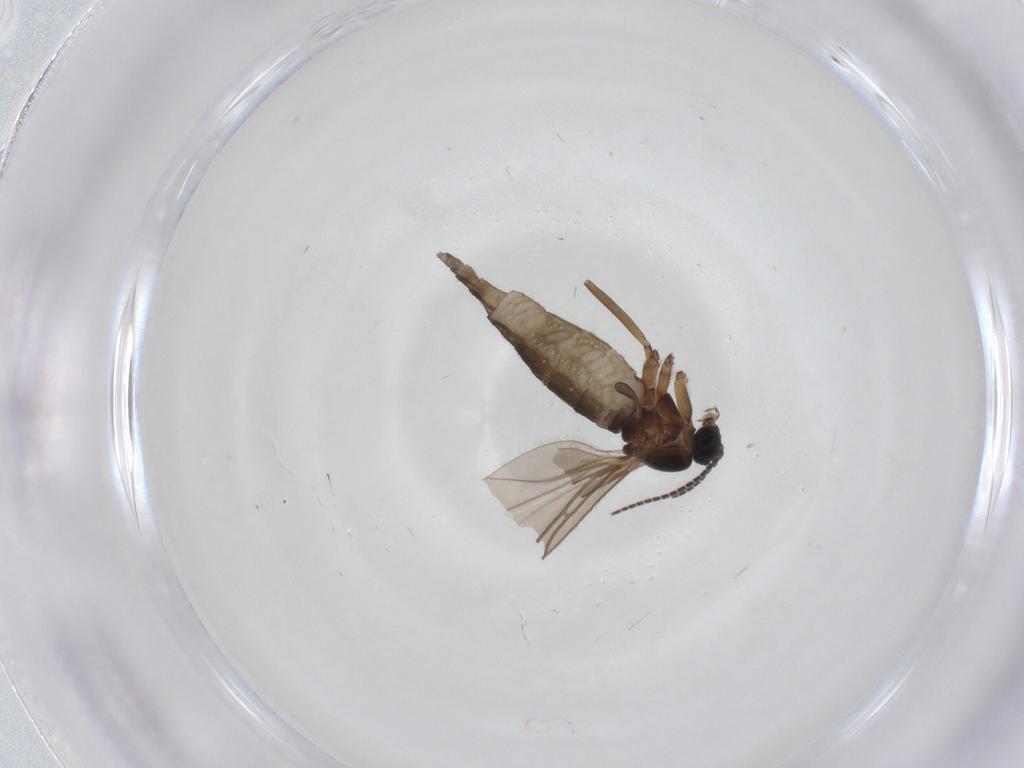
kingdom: Animalia
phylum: Arthropoda
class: Insecta
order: Diptera
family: Sciaridae
